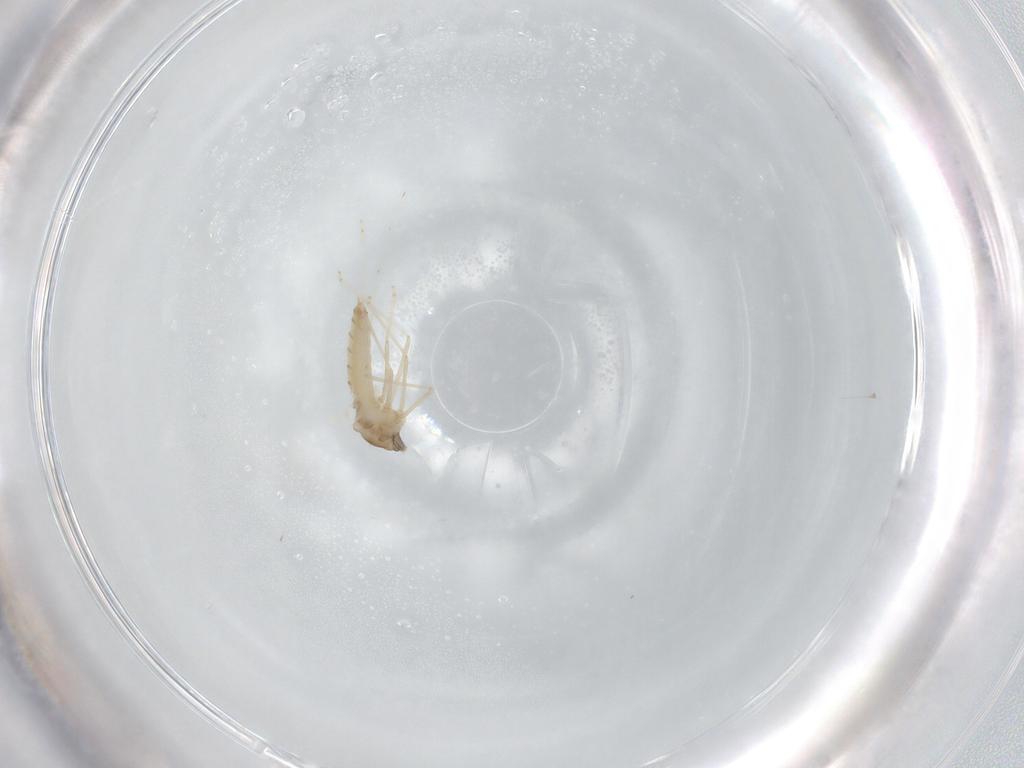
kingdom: Animalia
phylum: Arthropoda
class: Insecta
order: Diptera
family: Cecidomyiidae
